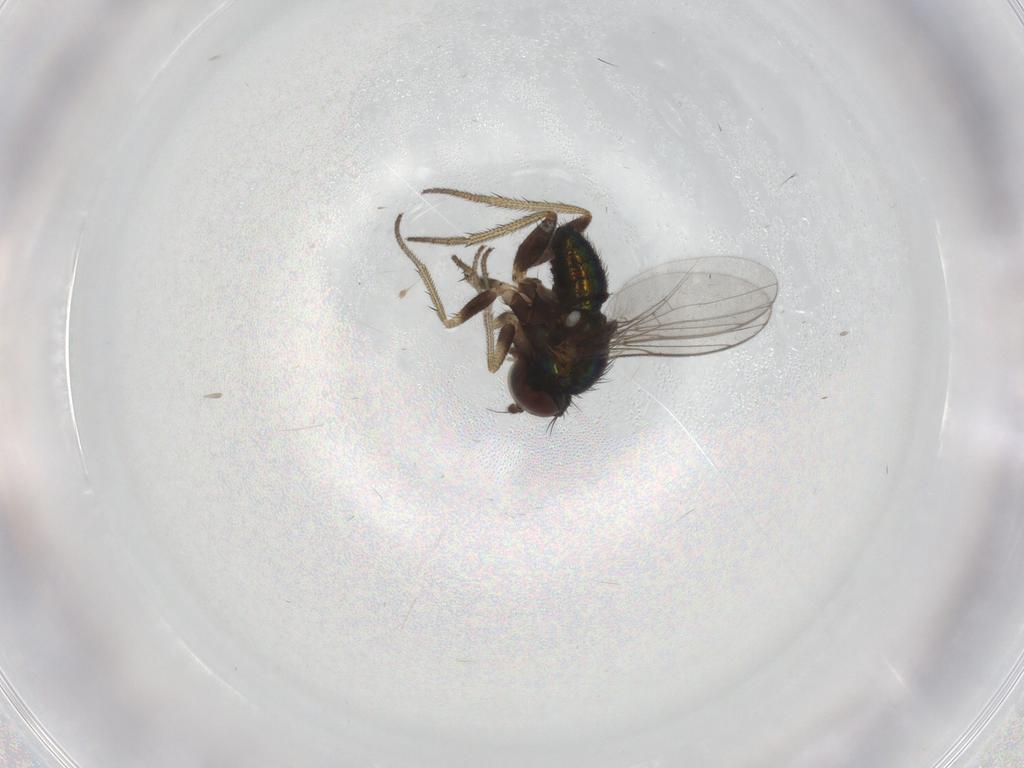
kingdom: Animalia
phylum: Arthropoda
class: Insecta
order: Diptera
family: Dolichopodidae
